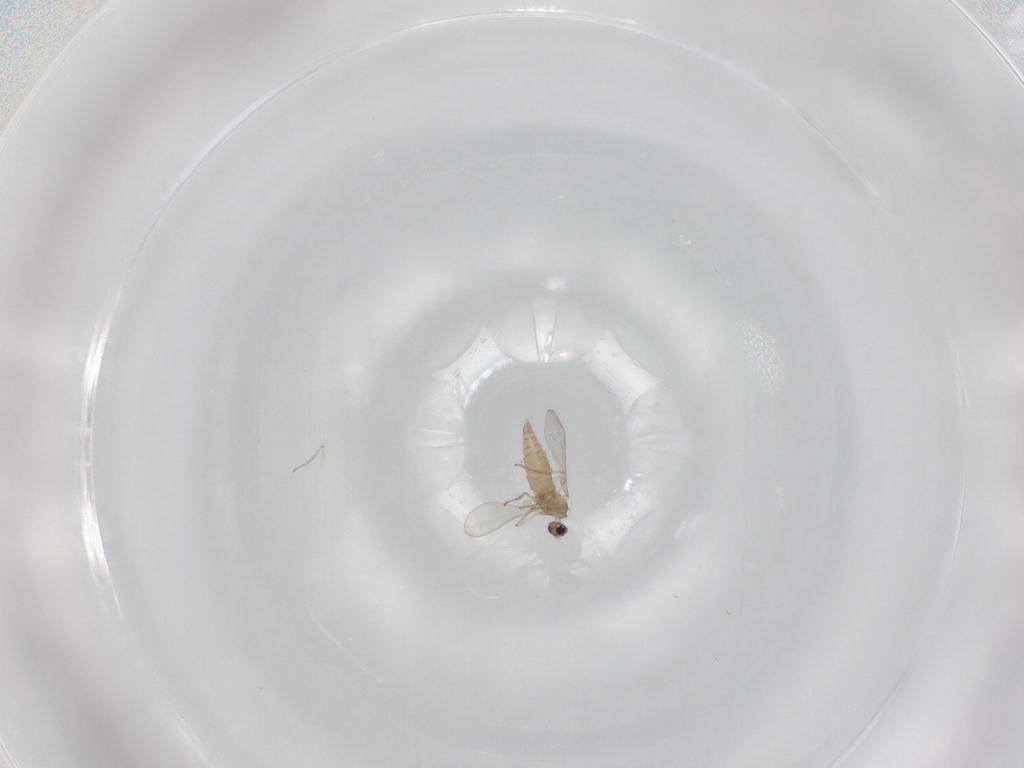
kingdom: Animalia
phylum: Arthropoda
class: Insecta
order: Diptera
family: Cecidomyiidae
